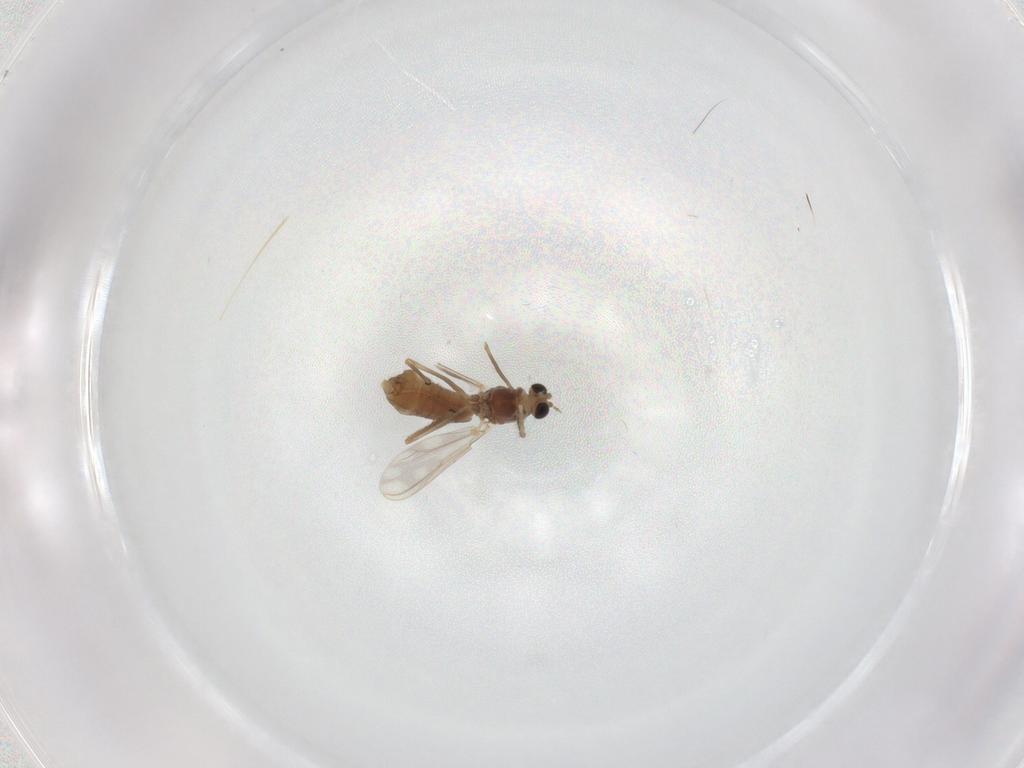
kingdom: Animalia
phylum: Arthropoda
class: Insecta
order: Diptera
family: Chironomidae
